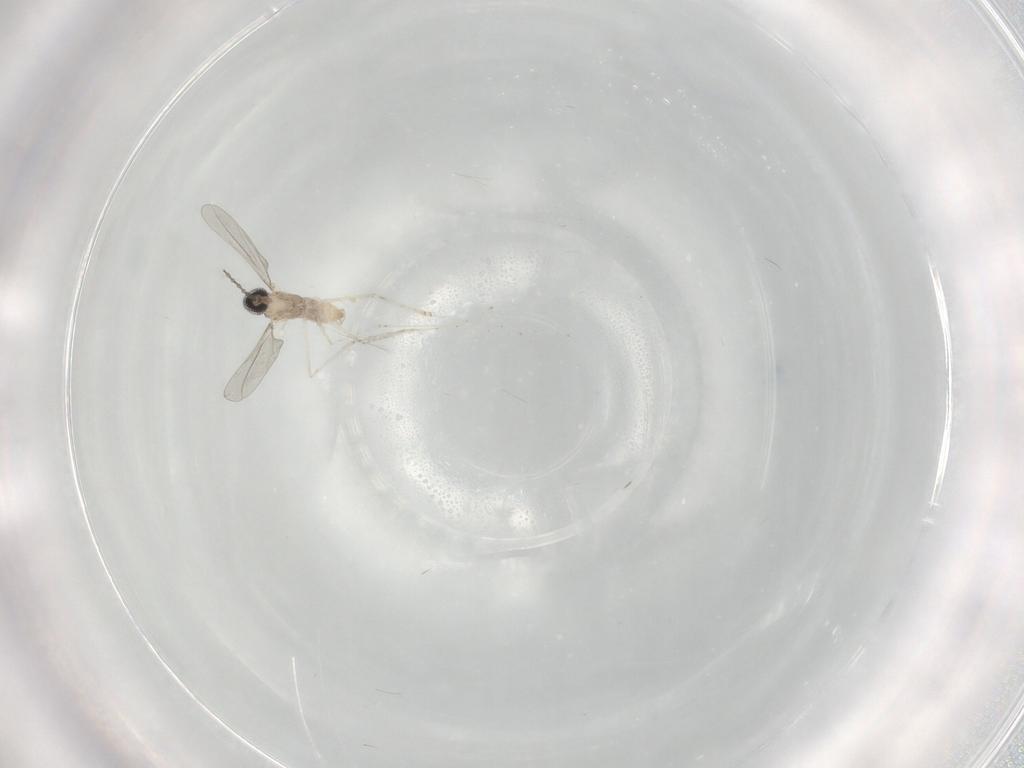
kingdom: Animalia
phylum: Arthropoda
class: Insecta
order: Diptera
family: Cecidomyiidae
